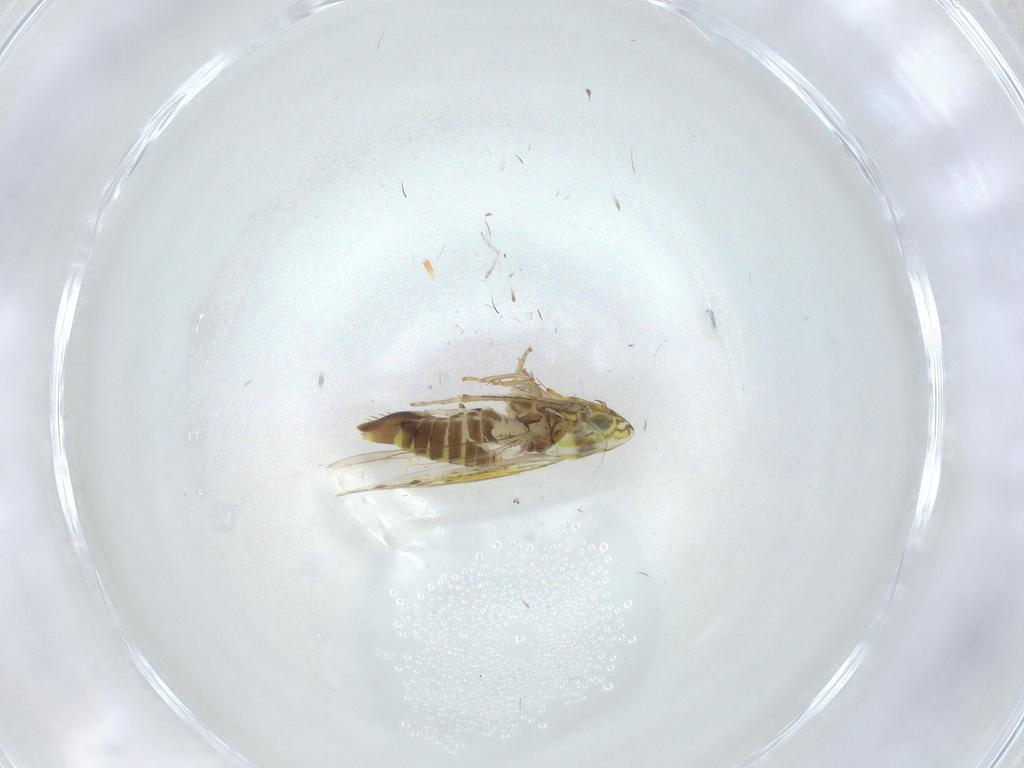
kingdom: Animalia
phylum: Arthropoda
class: Insecta
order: Hemiptera
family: Cicadellidae
